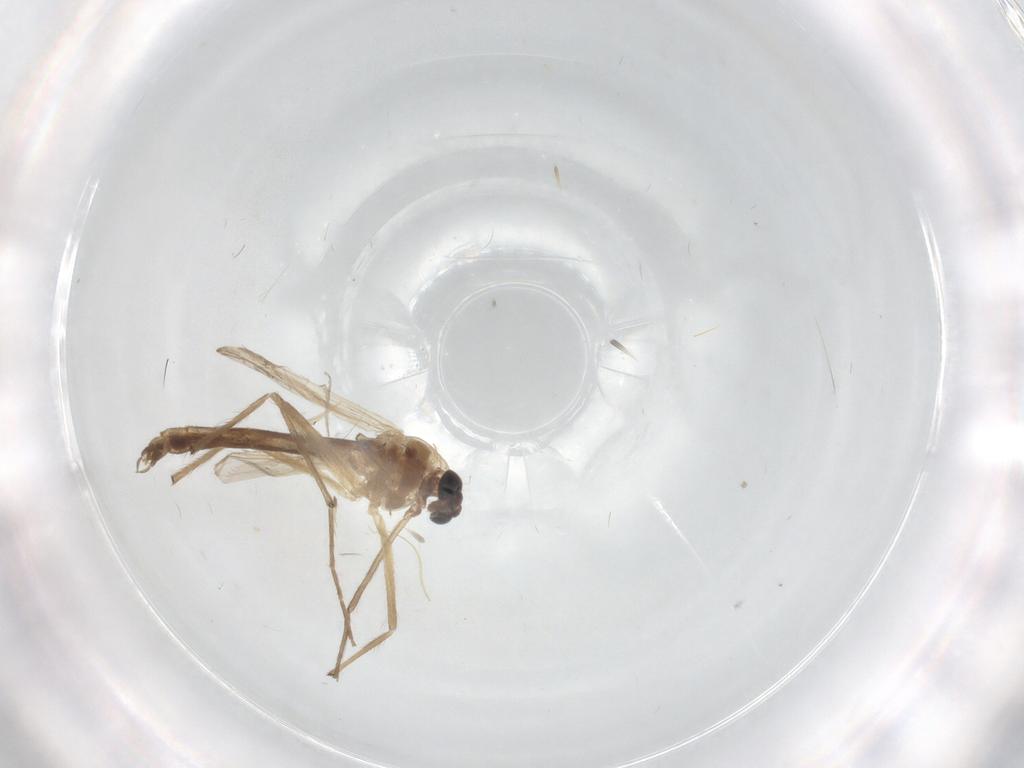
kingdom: Animalia
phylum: Arthropoda
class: Insecta
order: Diptera
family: Chironomidae
